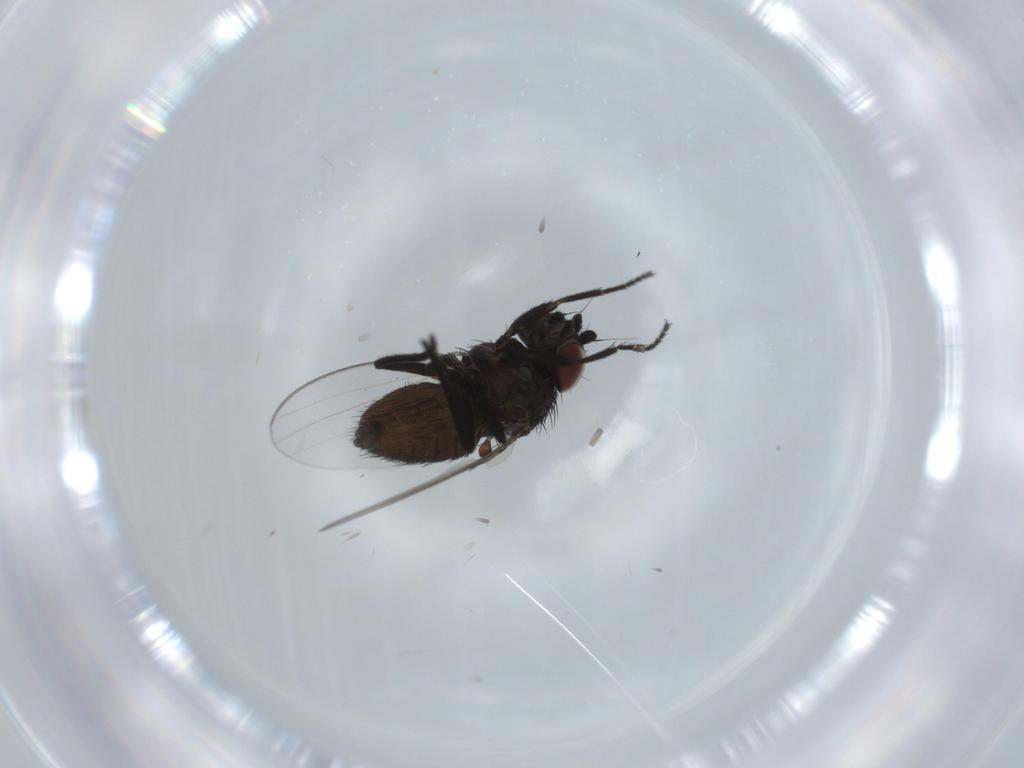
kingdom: Animalia
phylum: Arthropoda
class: Insecta
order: Diptera
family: Milichiidae
